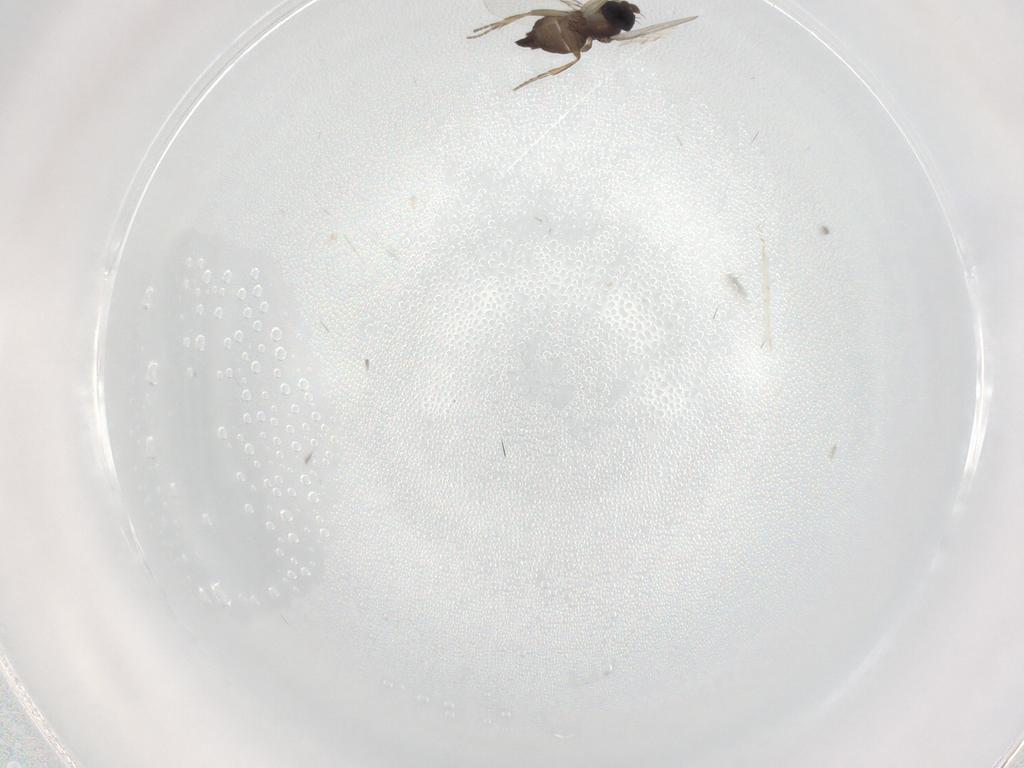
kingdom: Animalia
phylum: Arthropoda
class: Insecta
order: Diptera
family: Phoridae
